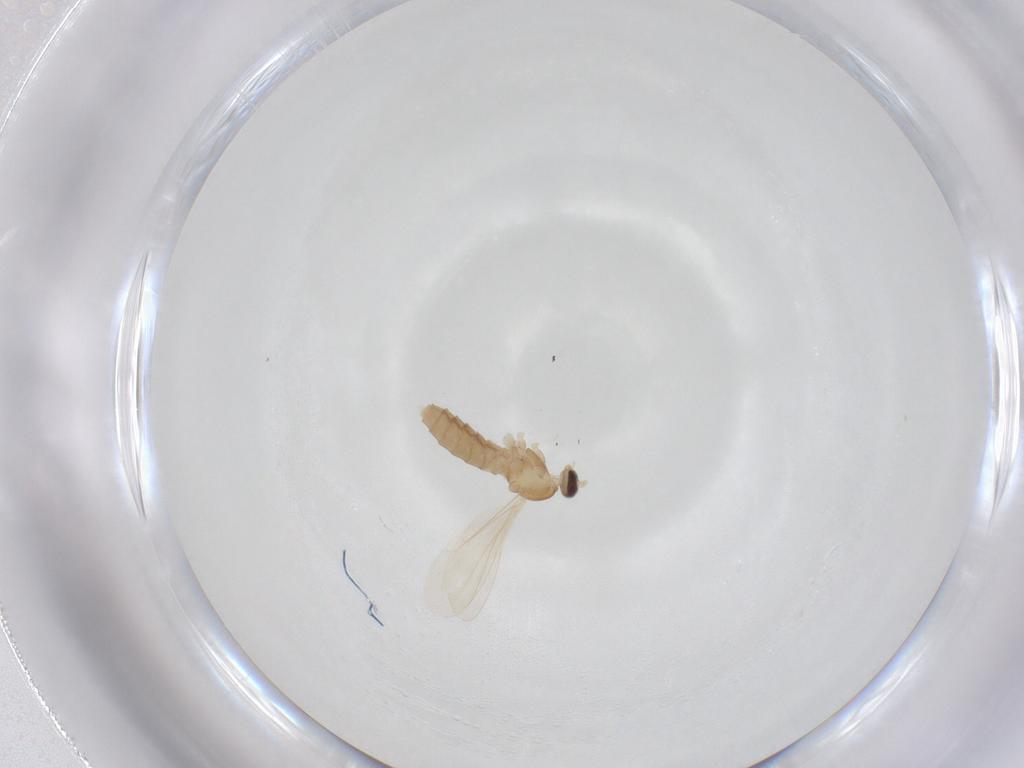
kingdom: Animalia
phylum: Arthropoda
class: Insecta
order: Diptera
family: Cecidomyiidae
